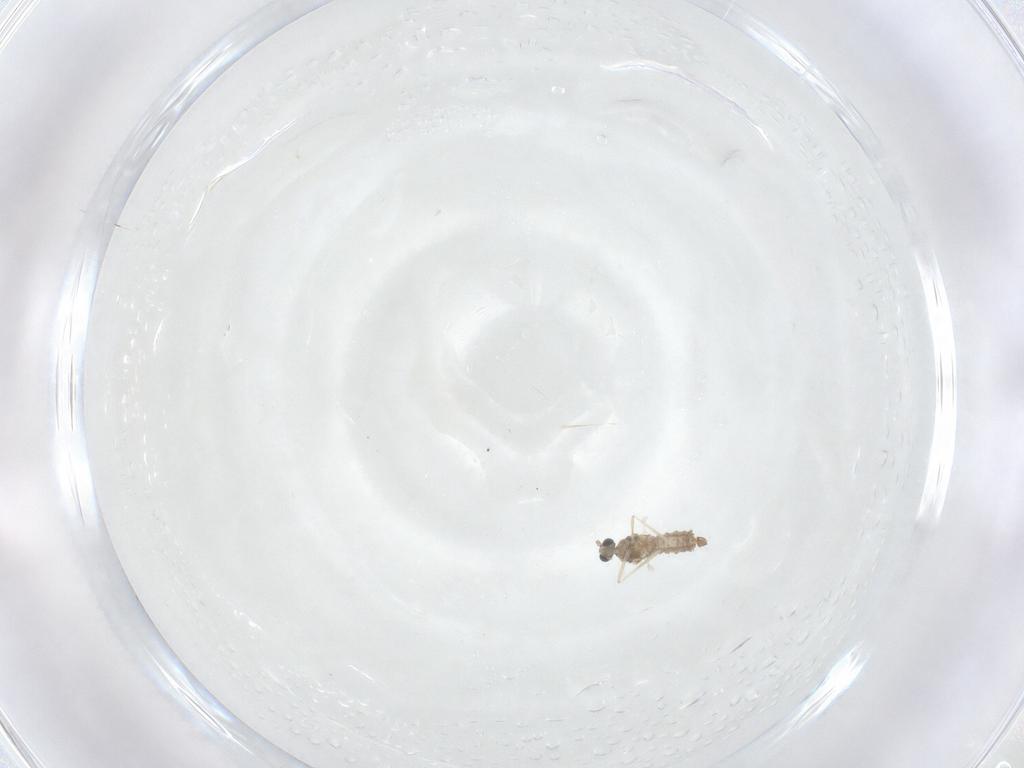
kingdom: Animalia
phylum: Arthropoda
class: Insecta
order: Diptera
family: Cecidomyiidae
